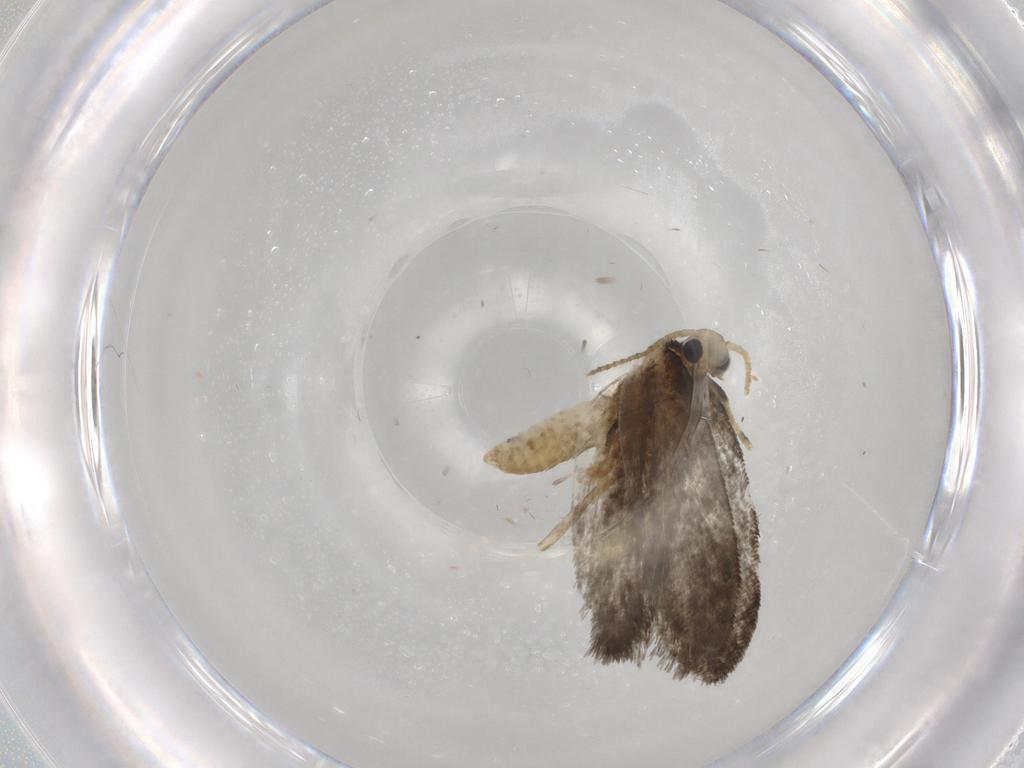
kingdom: Animalia
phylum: Arthropoda
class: Insecta
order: Lepidoptera
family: Psychidae
